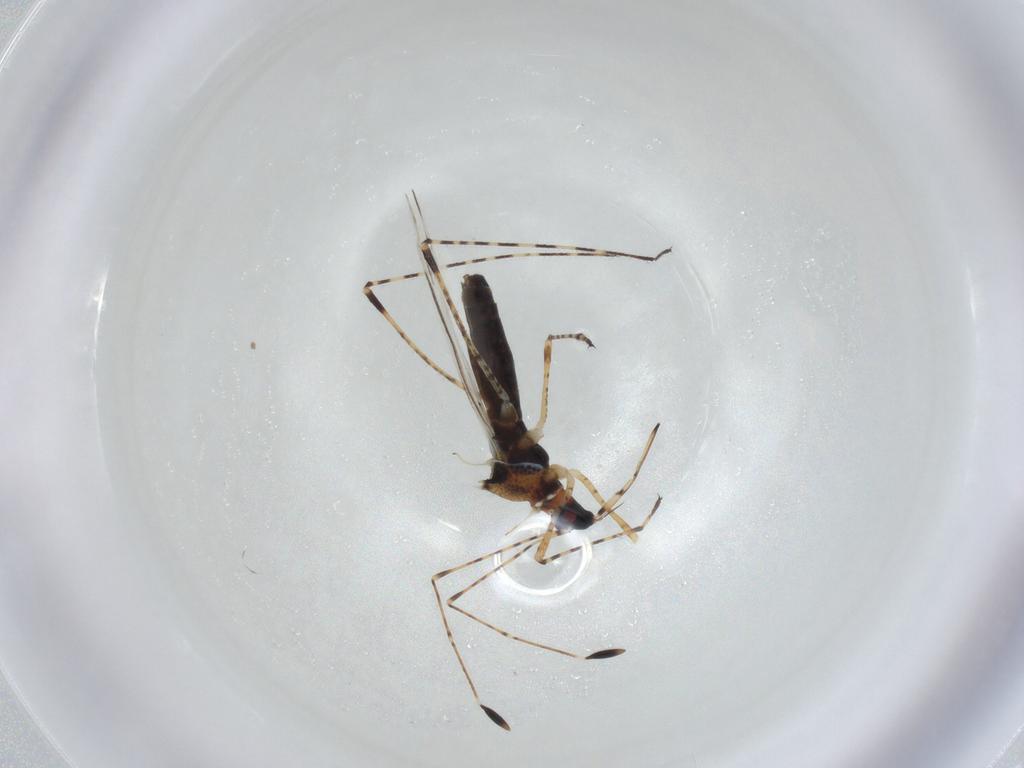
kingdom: Animalia
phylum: Arthropoda
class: Insecta
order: Hemiptera
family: Berytidae
